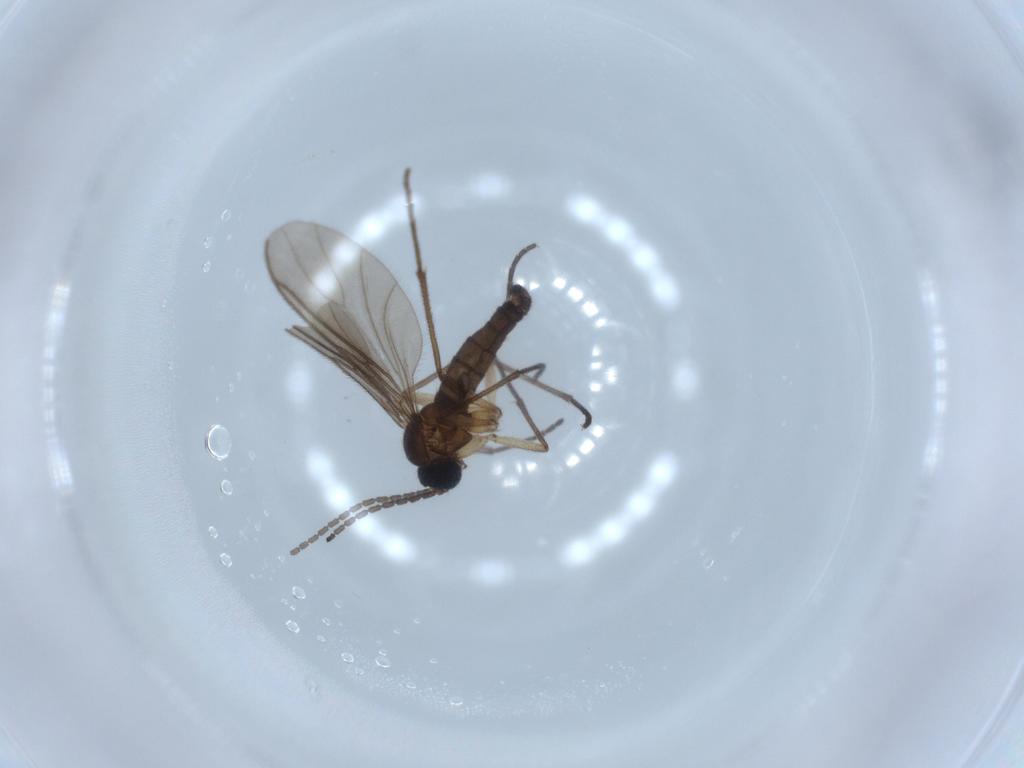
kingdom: Animalia
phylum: Arthropoda
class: Insecta
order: Diptera
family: Sciaridae
